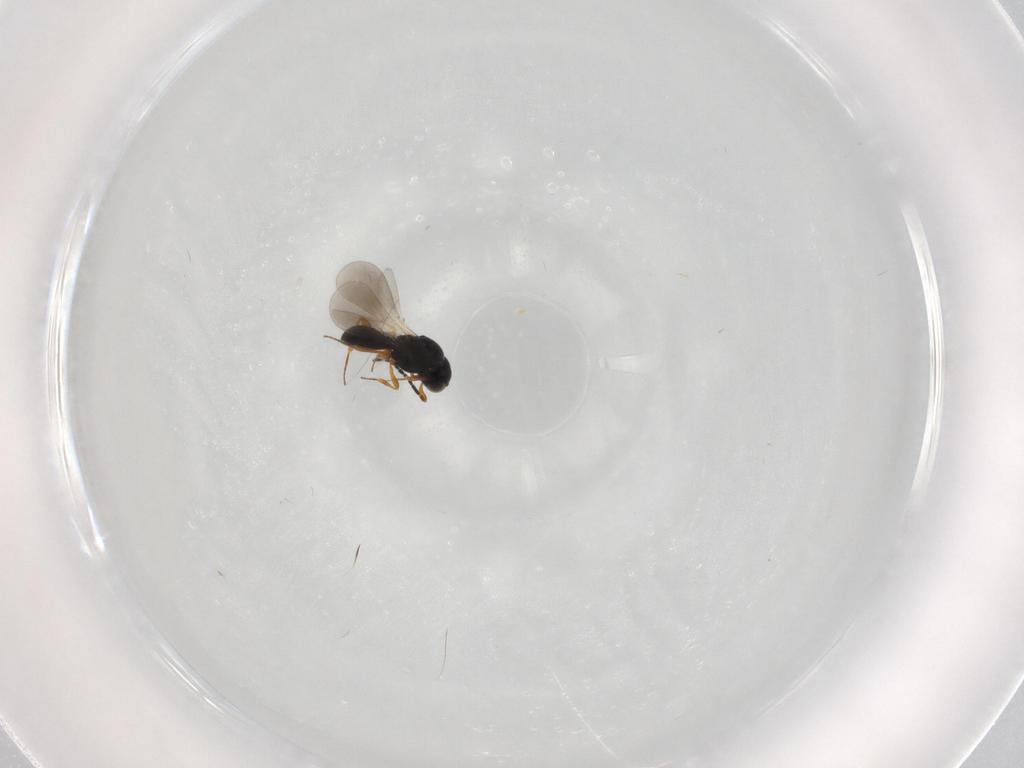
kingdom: Animalia
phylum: Arthropoda
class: Insecta
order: Hymenoptera
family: Platygastridae
